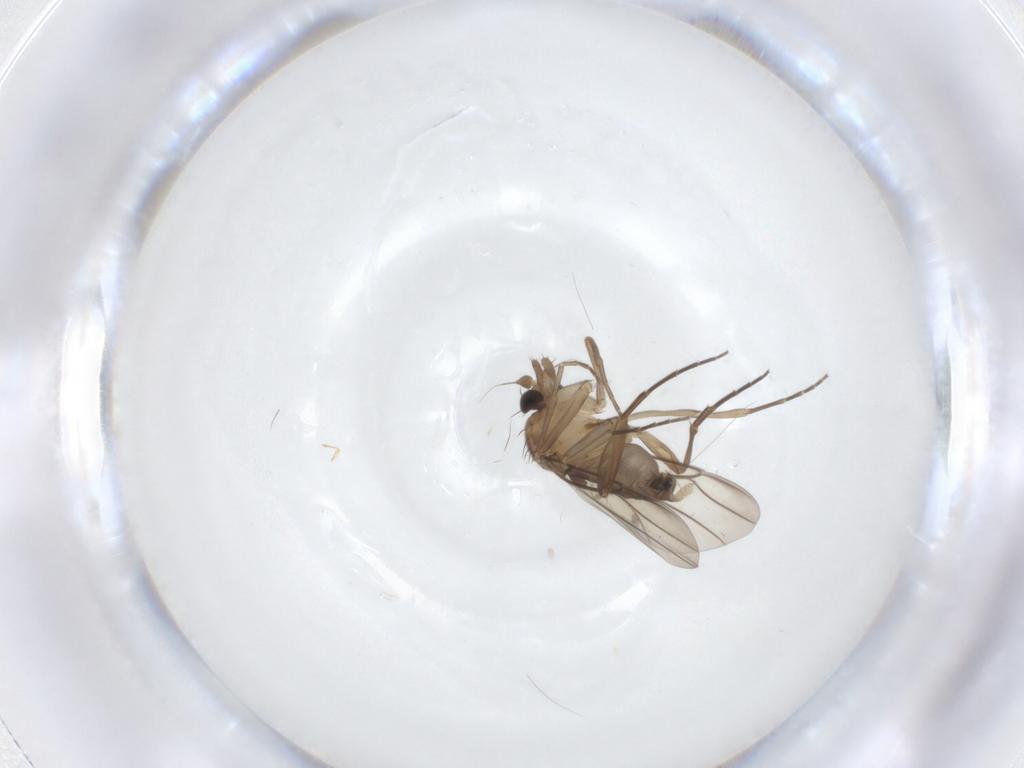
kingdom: Animalia
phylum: Arthropoda
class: Insecta
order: Diptera
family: Phoridae
